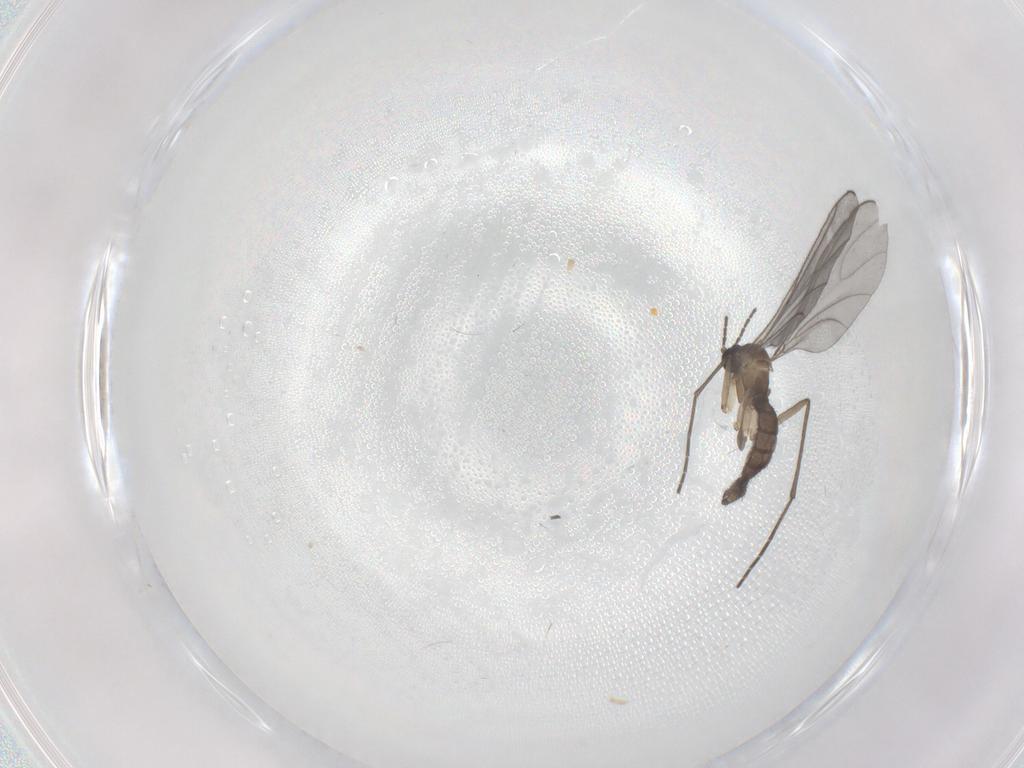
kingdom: Animalia
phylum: Arthropoda
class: Insecta
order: Diptera
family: Sciaridae
